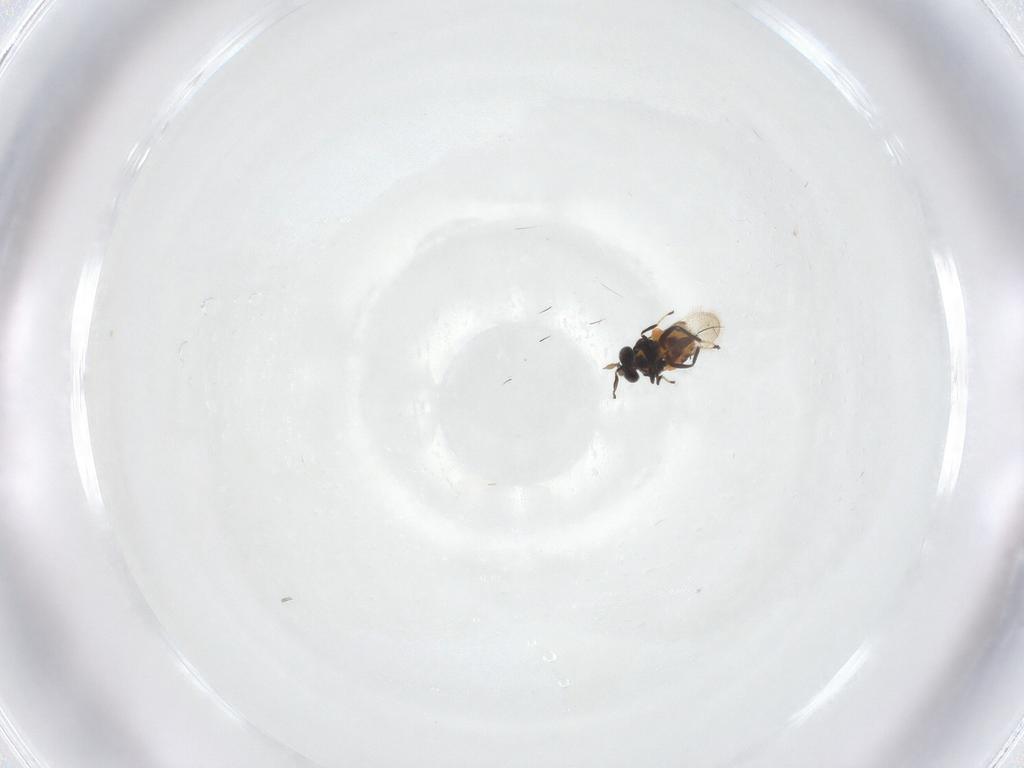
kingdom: Animalia
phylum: Arthropoda
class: Insecta
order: Hymenoptera
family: Eulophidae
